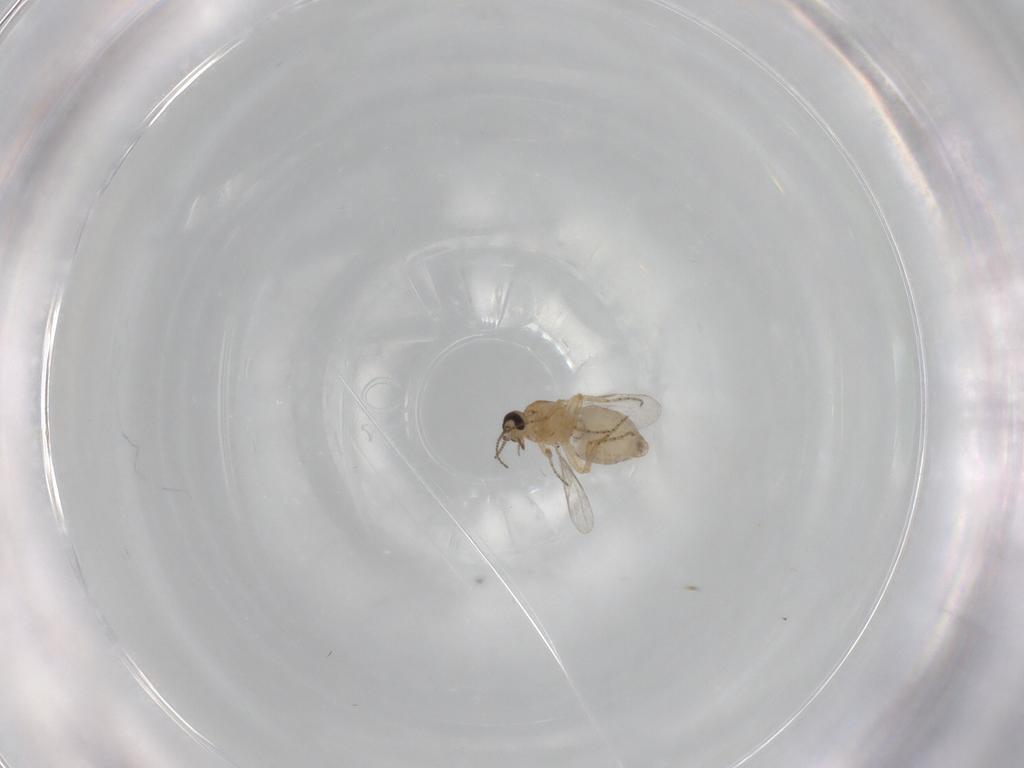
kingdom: Animalia
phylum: Arthropoda
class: Insecta
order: Diptera
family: Ceratopogonidae
